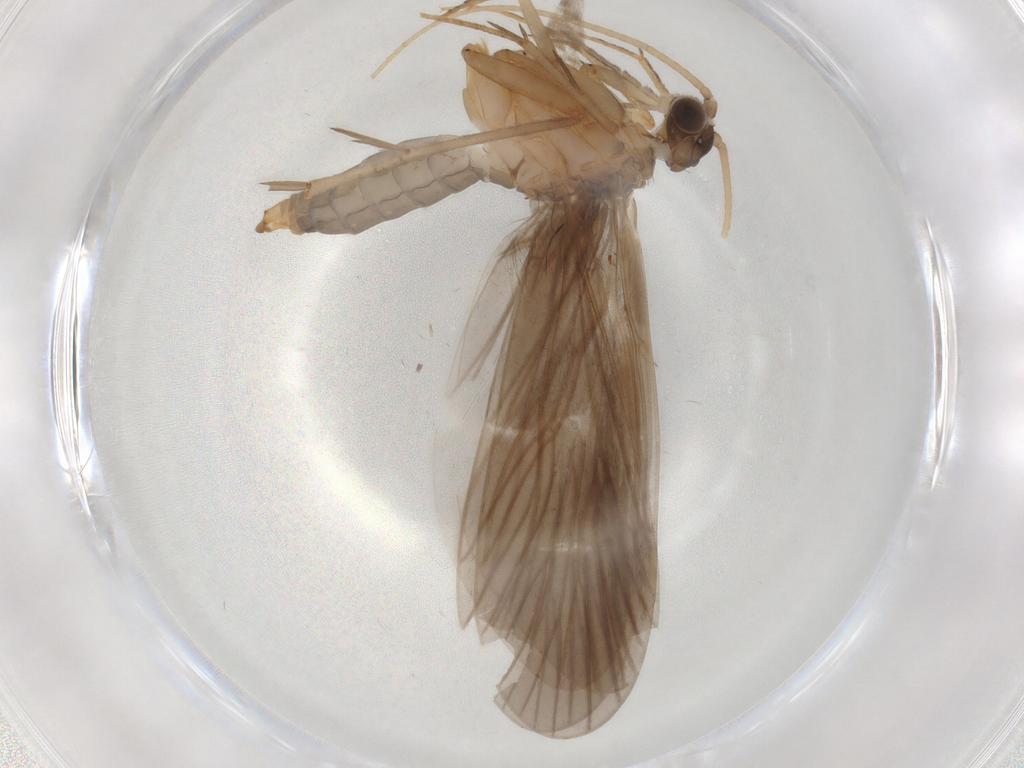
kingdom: Animalia
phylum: Arthropoda
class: Insecta
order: Trichoptera
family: Philopotamidae
